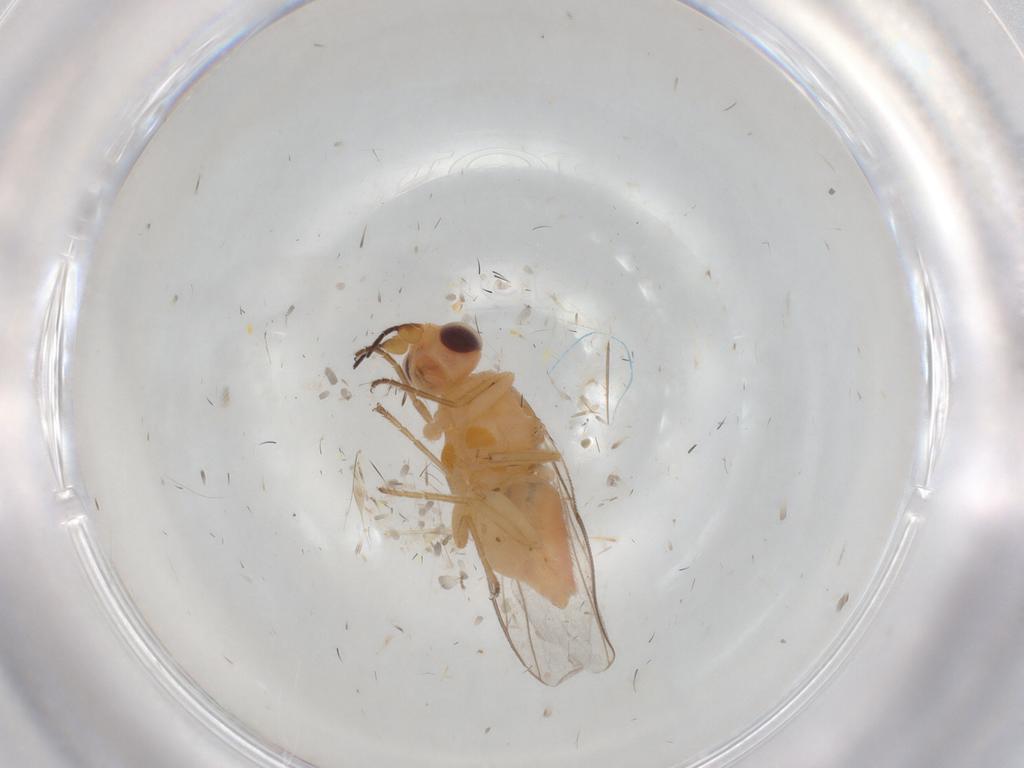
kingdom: Animalia
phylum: Arthropoda
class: Insecta
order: Diptera
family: Chloropidae
